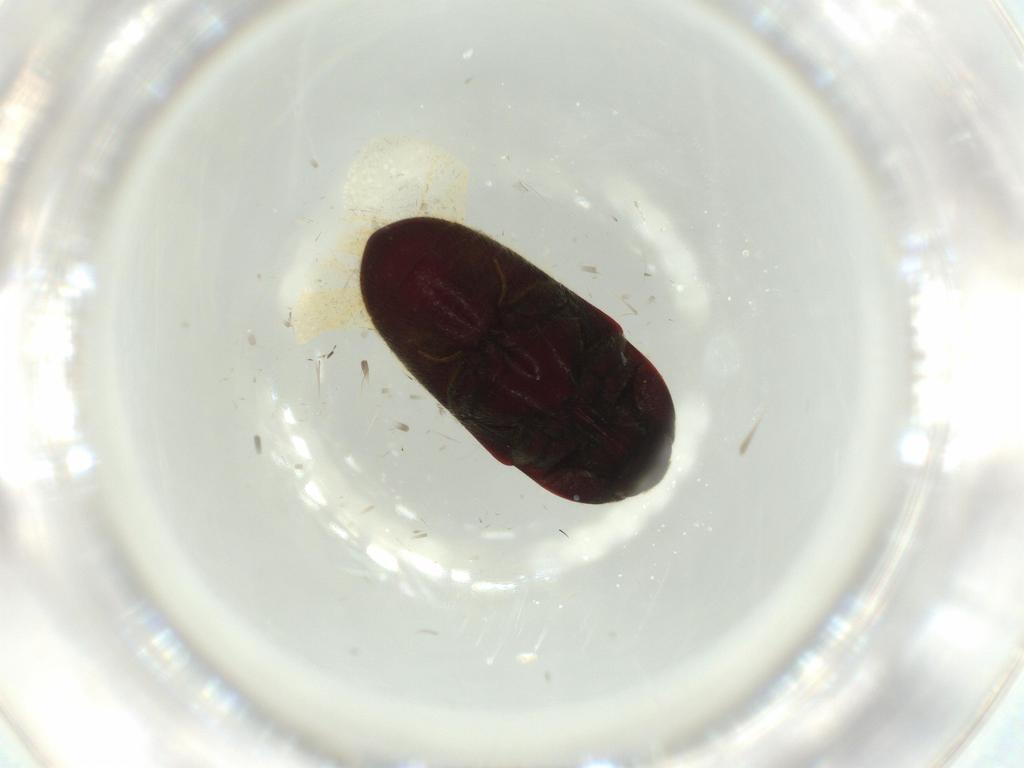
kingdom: Animalia
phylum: Arthropoda
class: Insecta
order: Coleoptera
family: Throscidae
